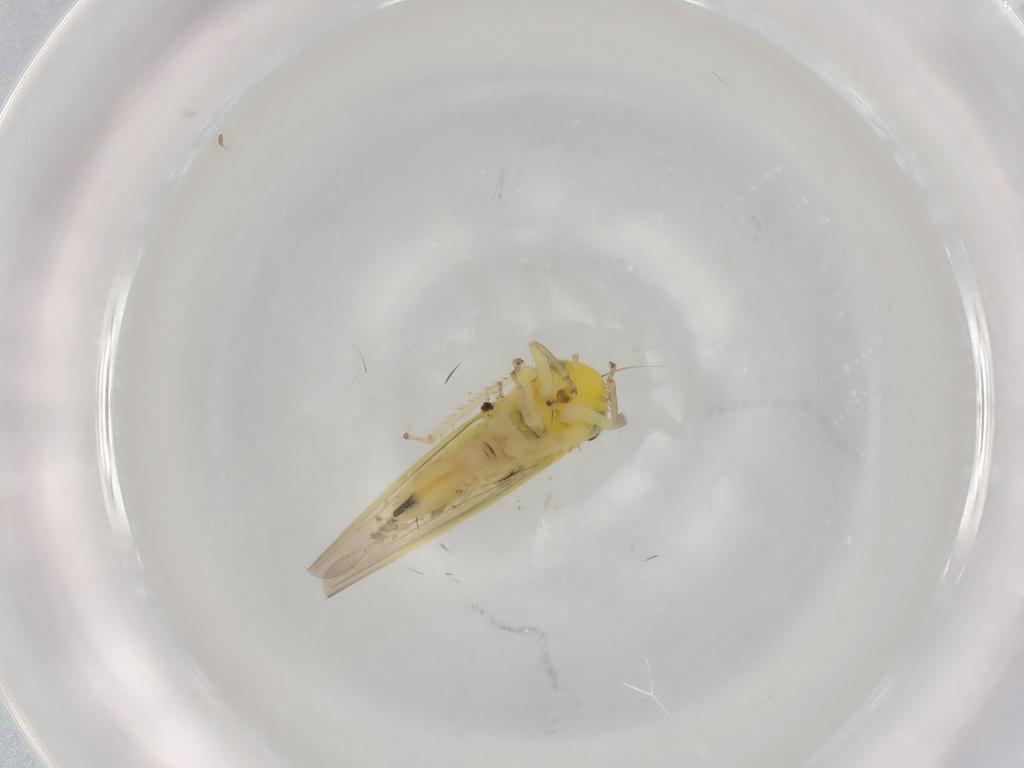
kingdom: Animalia
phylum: Arthropoda
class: Insecta
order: Hemiptera
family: Cicadellidae
